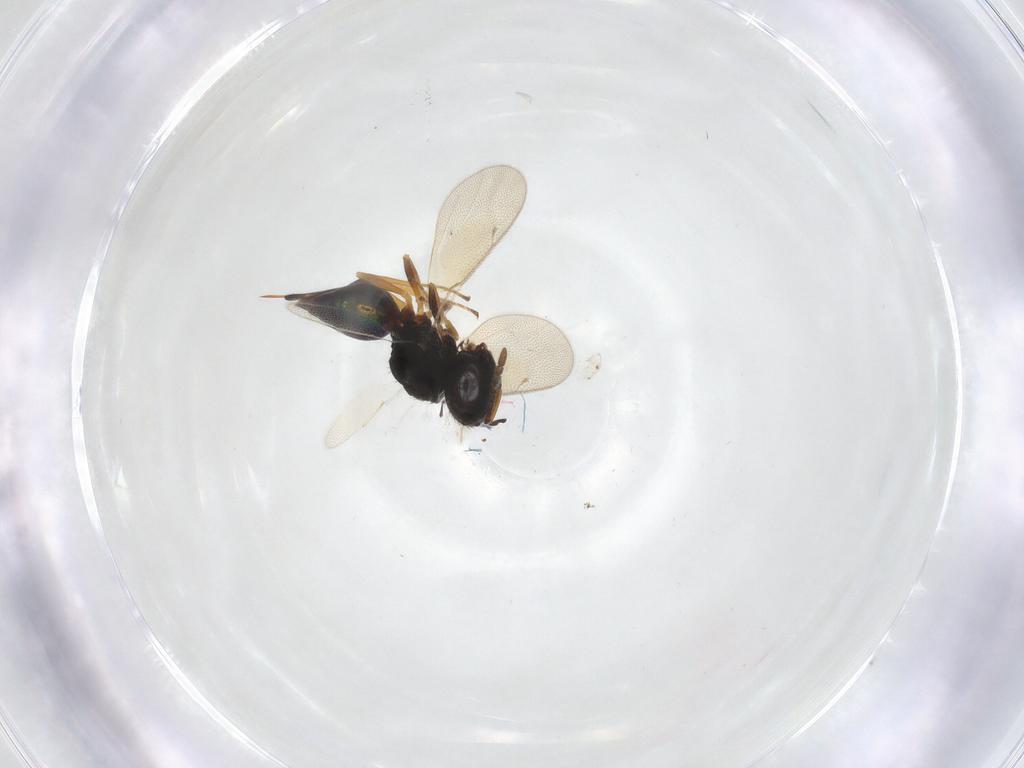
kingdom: Animalia
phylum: Arthropoda
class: Insecta
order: Hymenoptera
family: Pteromalidae
